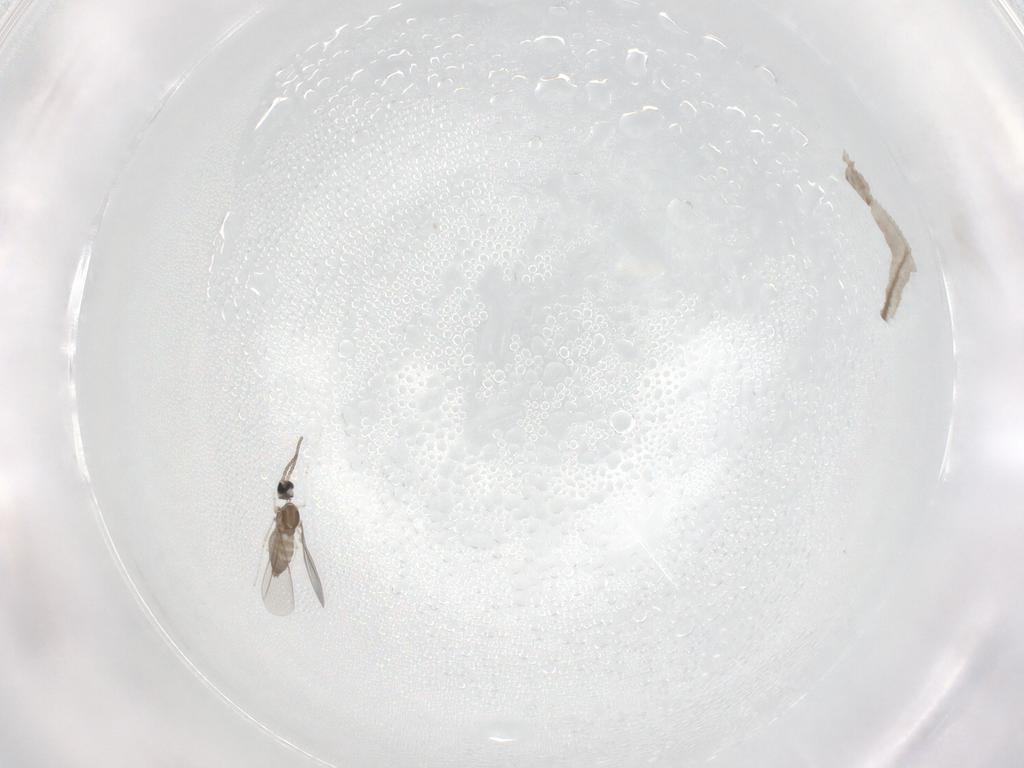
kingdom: Animalia
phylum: Arthropoda
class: Insecta
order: Diptera
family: Cecidomyiidae
